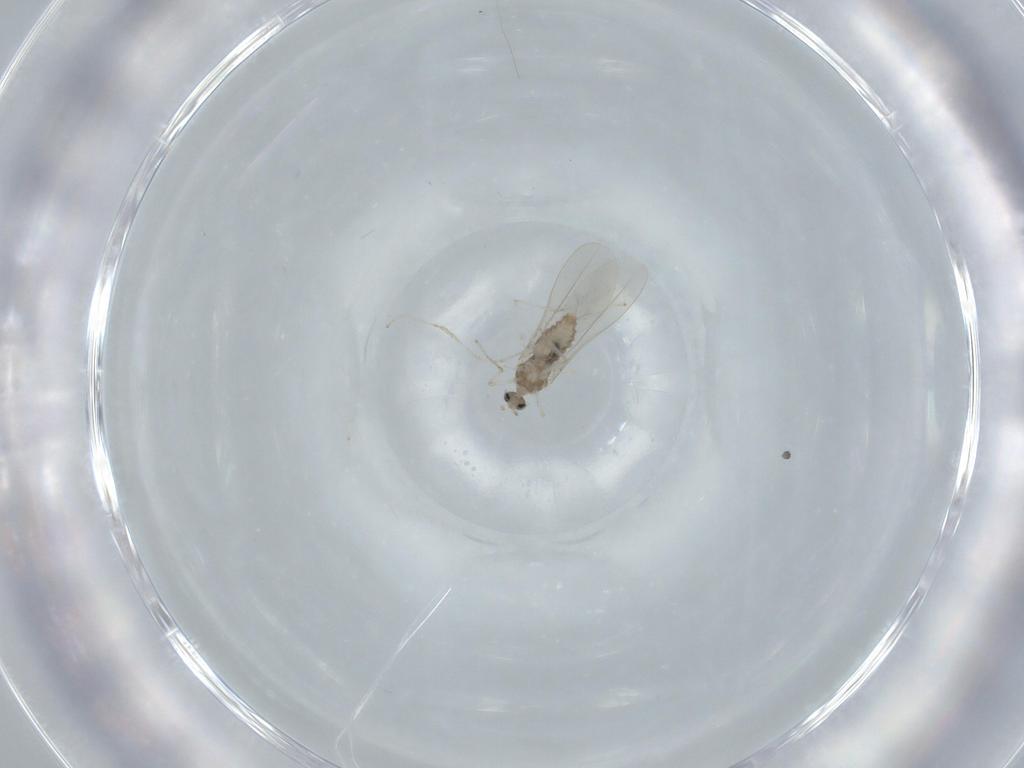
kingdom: Animalia
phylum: Arthropoda
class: Insecta
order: Diptera
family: Cecidomyiidae
